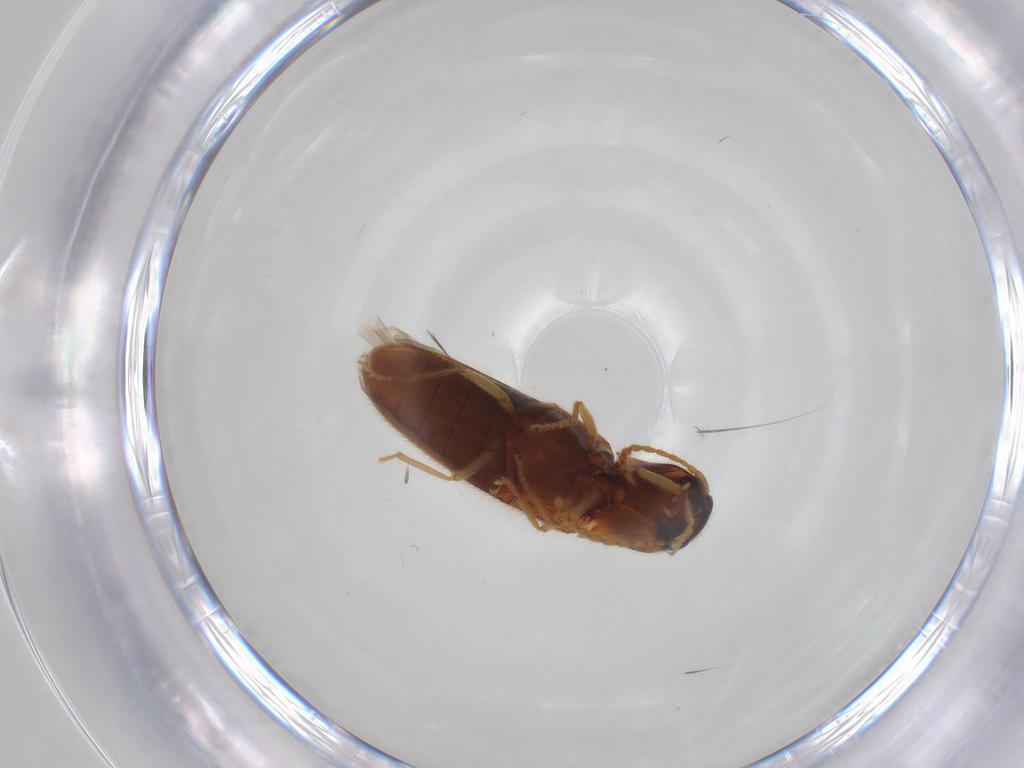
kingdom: Animalia
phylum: Arthropoda
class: Insecta
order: Coleoptera
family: Elateridae
